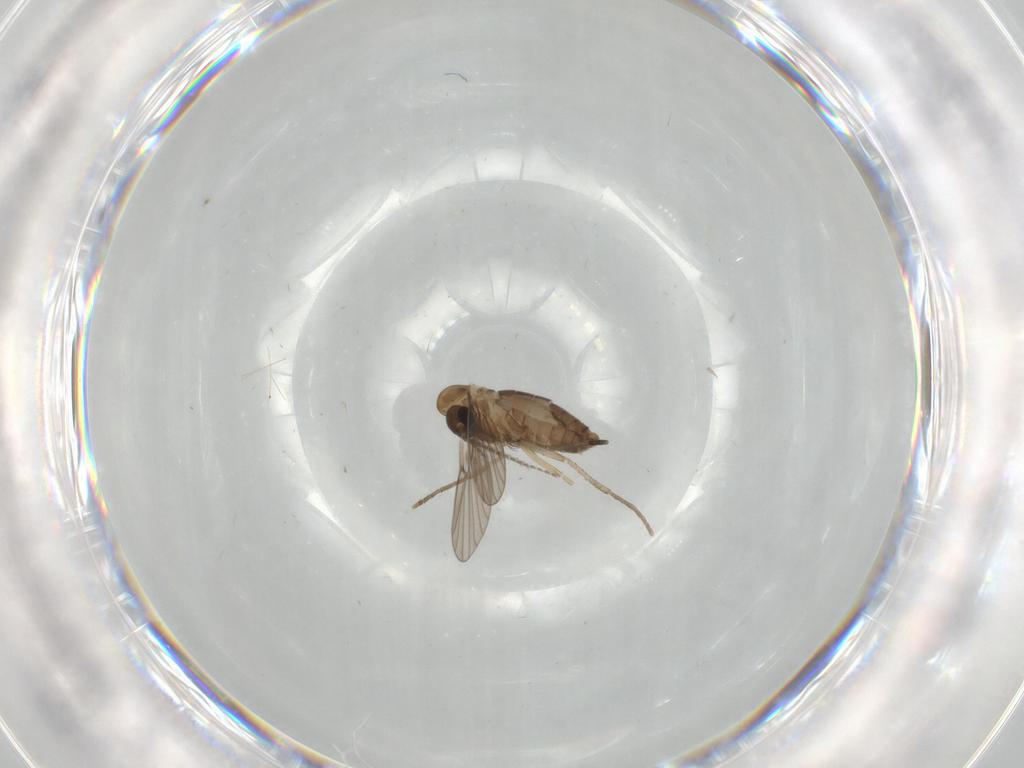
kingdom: Animalia
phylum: Arthropoda
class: Insecta
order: Diptera
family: Psychodidae
